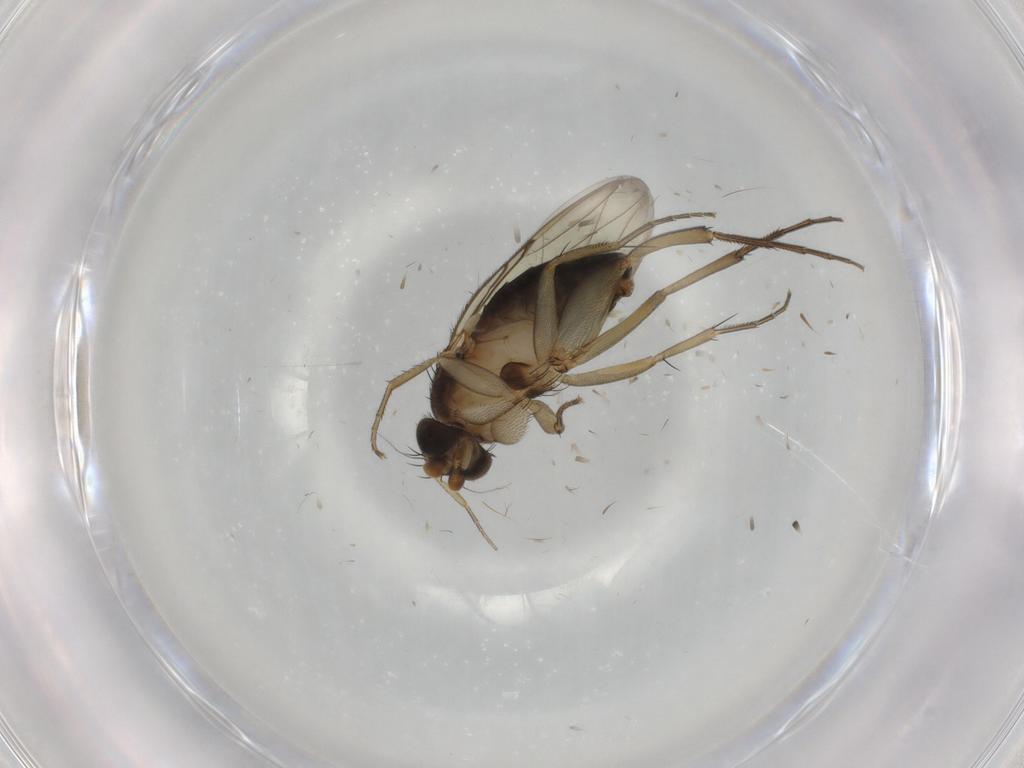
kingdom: Animalia
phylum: Arthropoda
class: Insecta
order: Diptera
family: Phoridae
